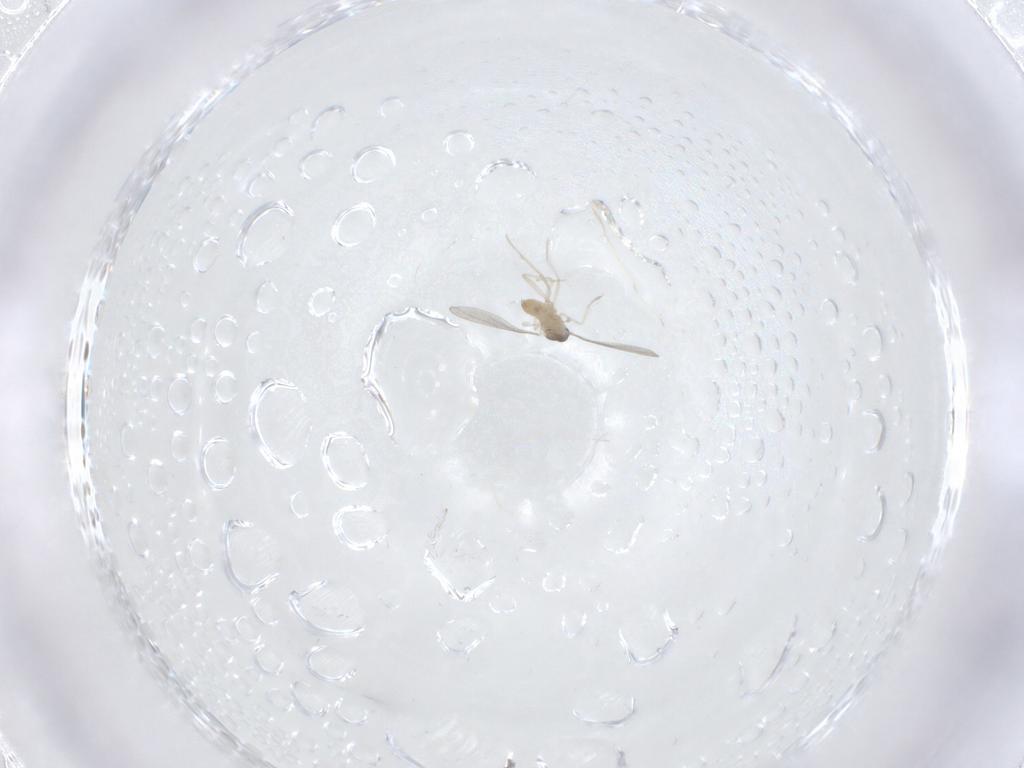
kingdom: Animalia
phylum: Arthropoda
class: Insecta
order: Diptera
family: Cecidomyiidae
